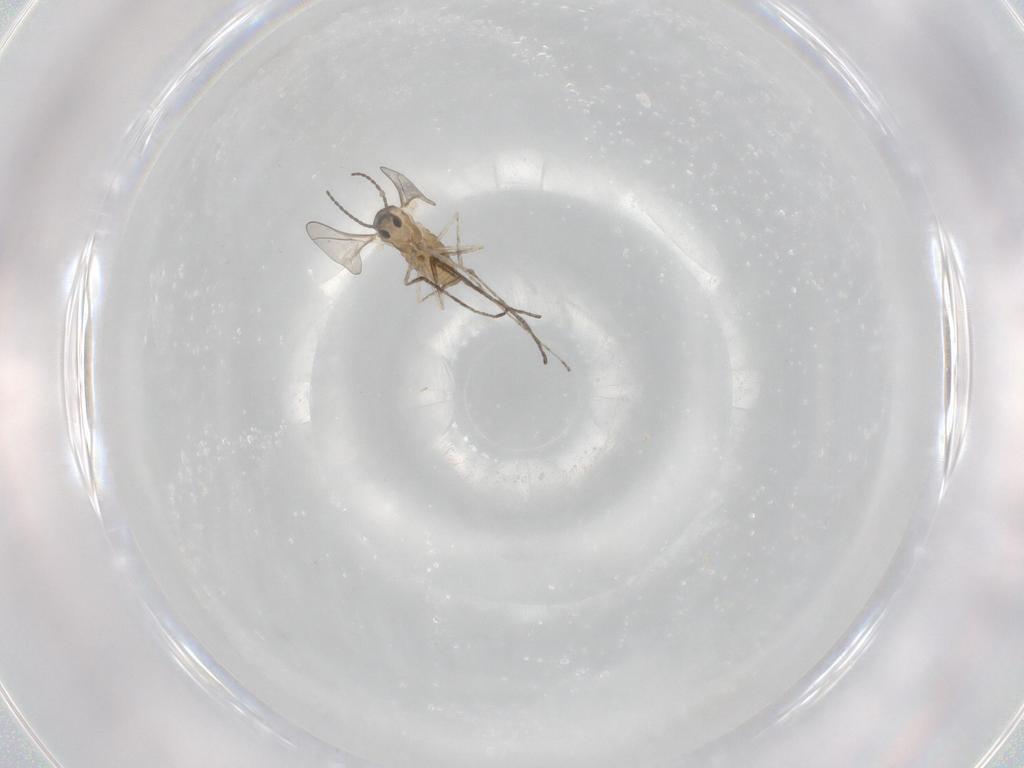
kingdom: Animalia
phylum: Arthropoda
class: Insecta
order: Diptera
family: Cecidomyiidae
